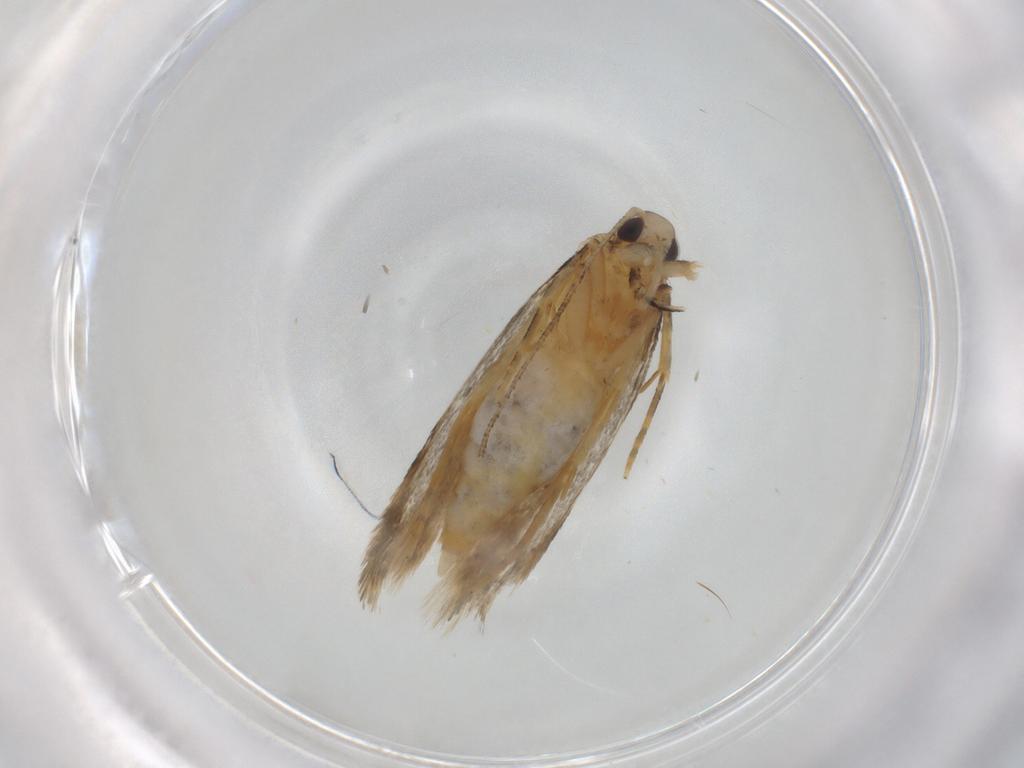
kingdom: Animalia
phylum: Arthropoda
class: Insecta
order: Lepidoptera
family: Autostichidae
